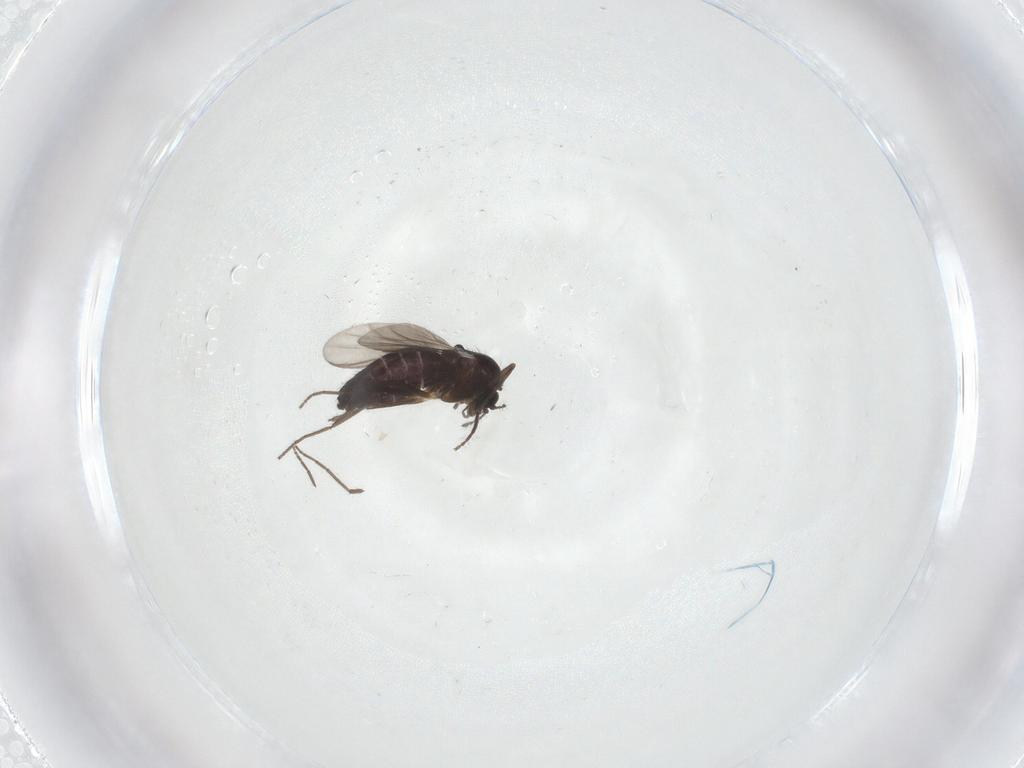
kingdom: Animalia
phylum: Arthropoda
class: Insecta
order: Diptera
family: Chironomidae
